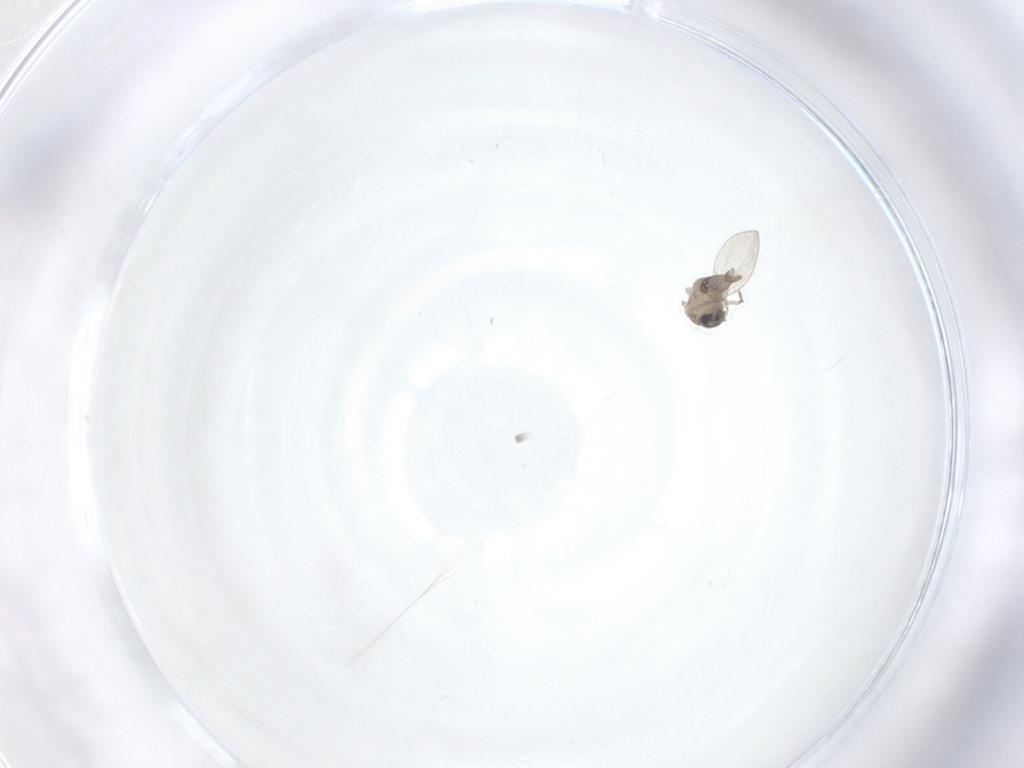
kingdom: Animalia
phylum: Arthropoda
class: Insecta
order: Diptera
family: Psychodidae
